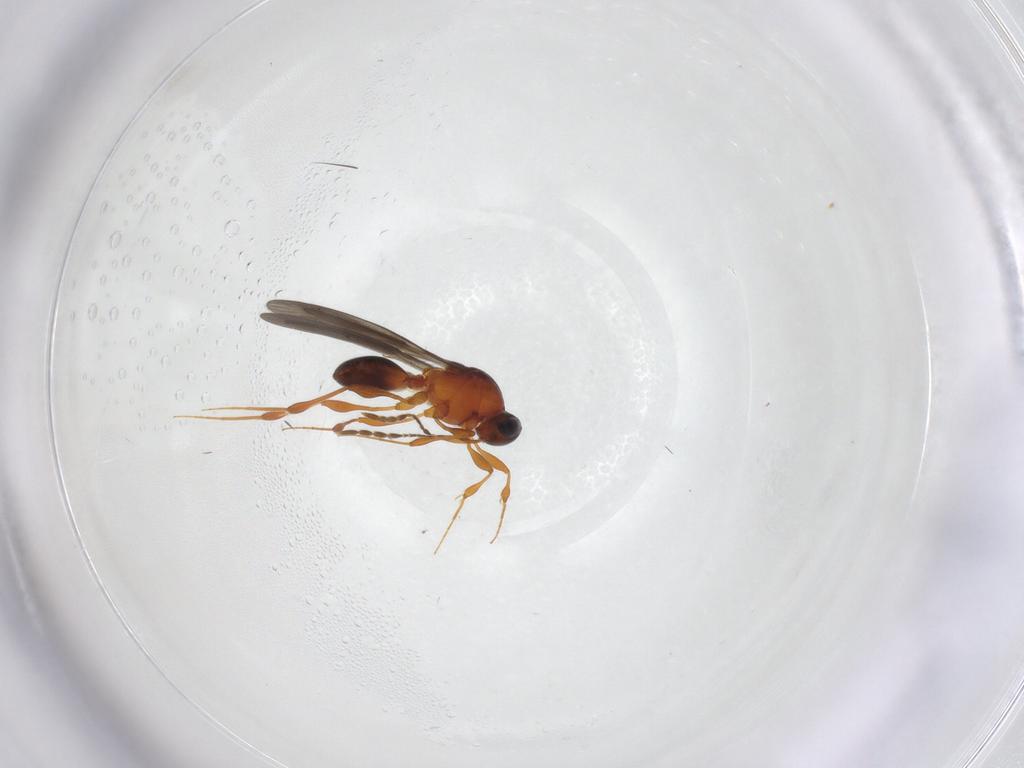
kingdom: Animalia
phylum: Arthropoda
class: Insecta
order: Hymenoptera
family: Platygastridae
